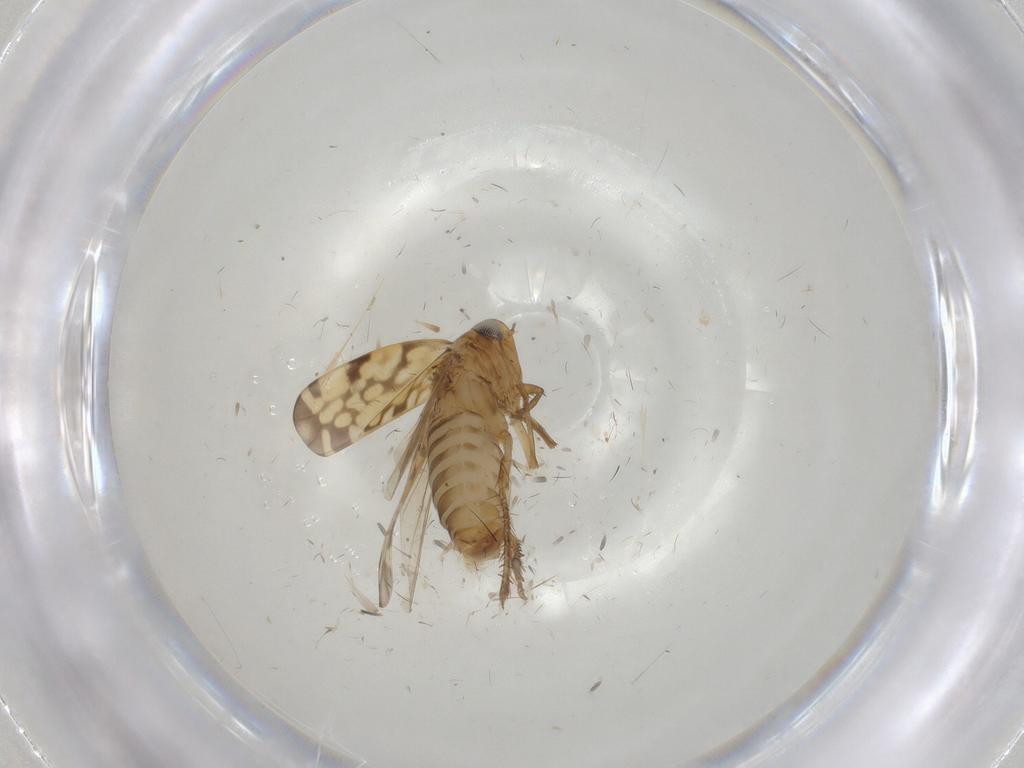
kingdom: Animalia
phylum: Arthropoda
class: Insecta
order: Hemiptera
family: Cicadellidae
